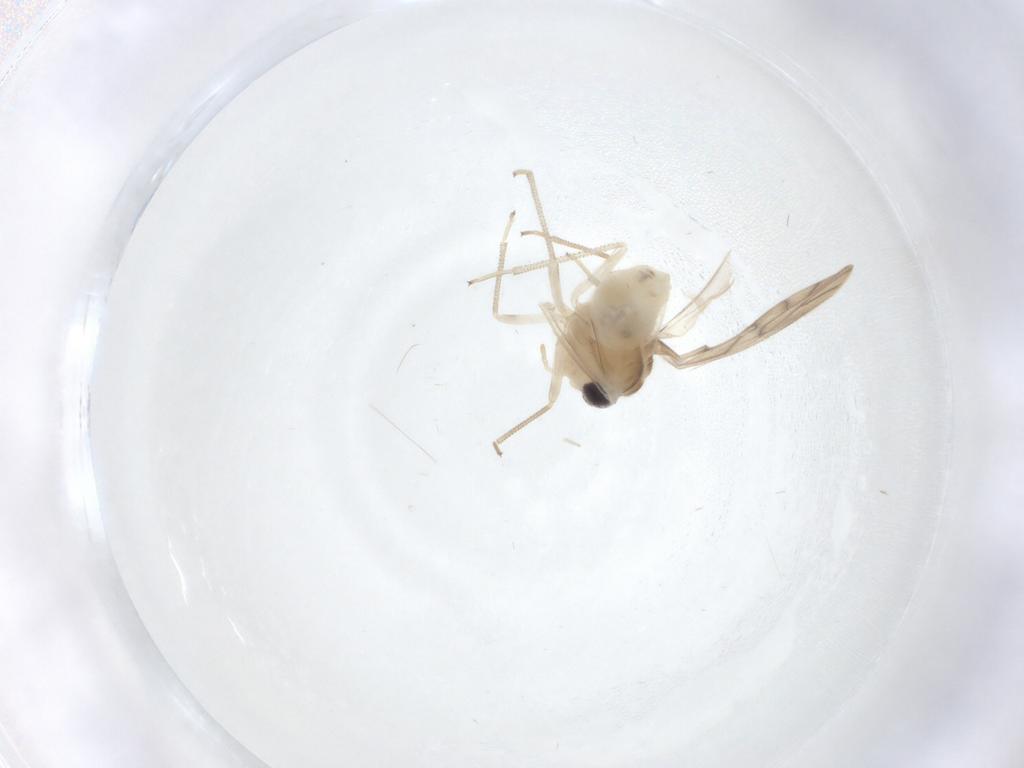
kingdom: Animalia
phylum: Arthropoda
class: Insecta
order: Psocodea
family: Caeciliusidae
